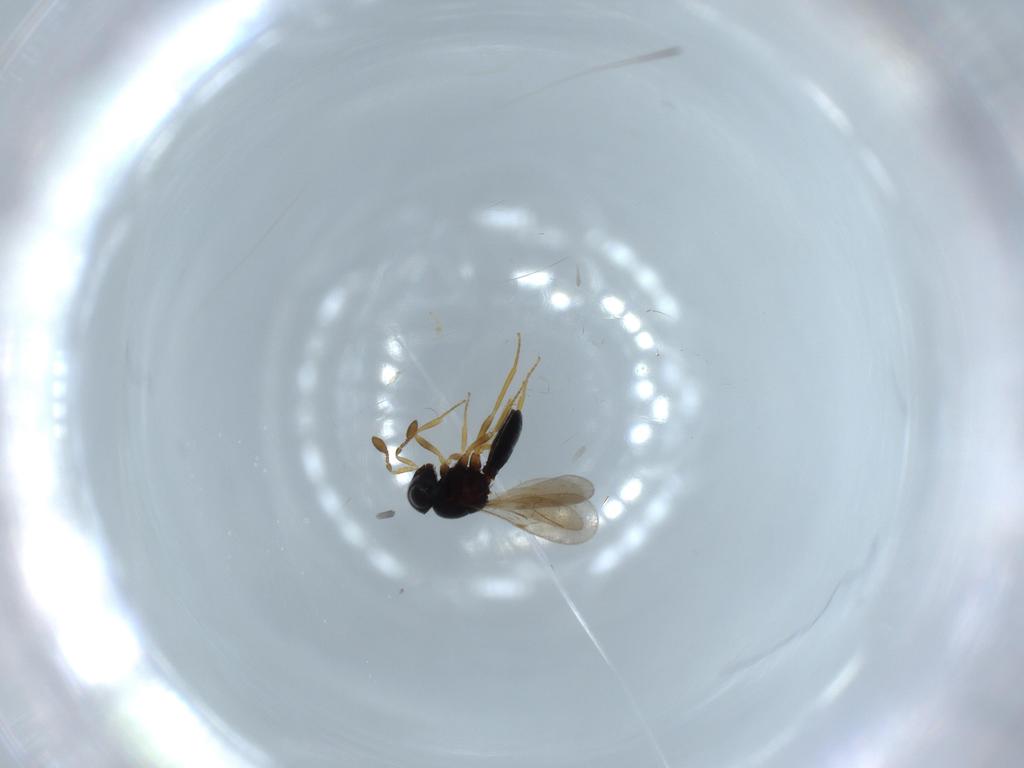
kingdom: Animalia
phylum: Arthropoda
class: Insecta
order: Hymenoptera
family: Scelionidae
